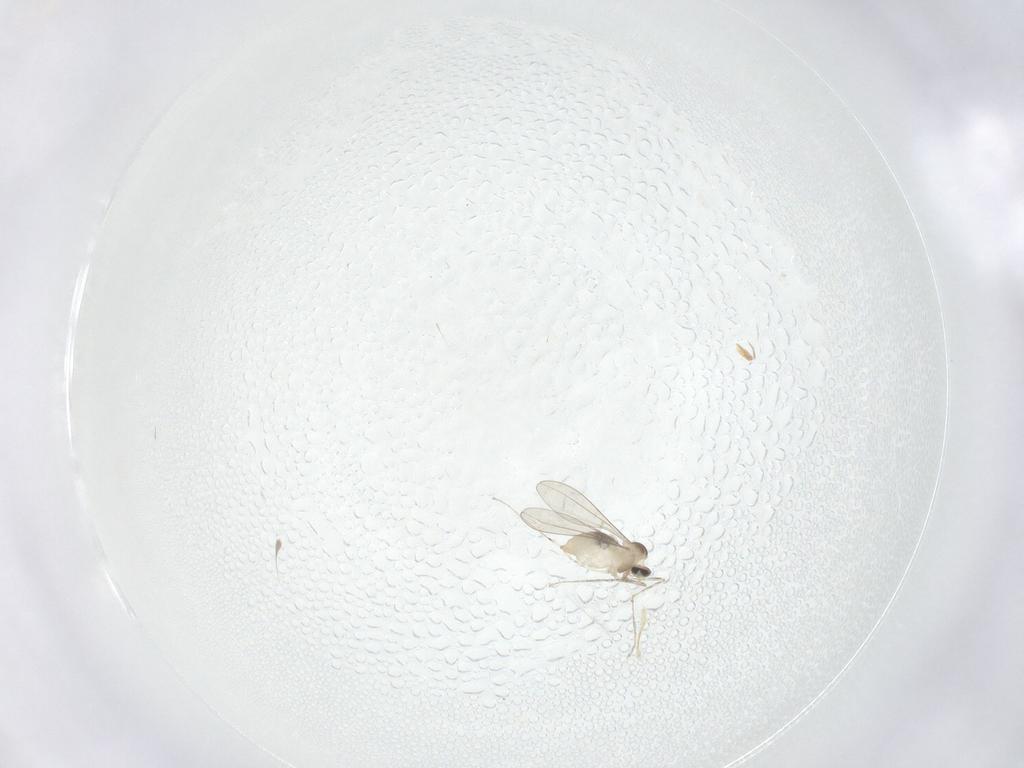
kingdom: Animalia
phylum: Arthropoda
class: Insecta
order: Diptera
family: Cecidomyiidae
